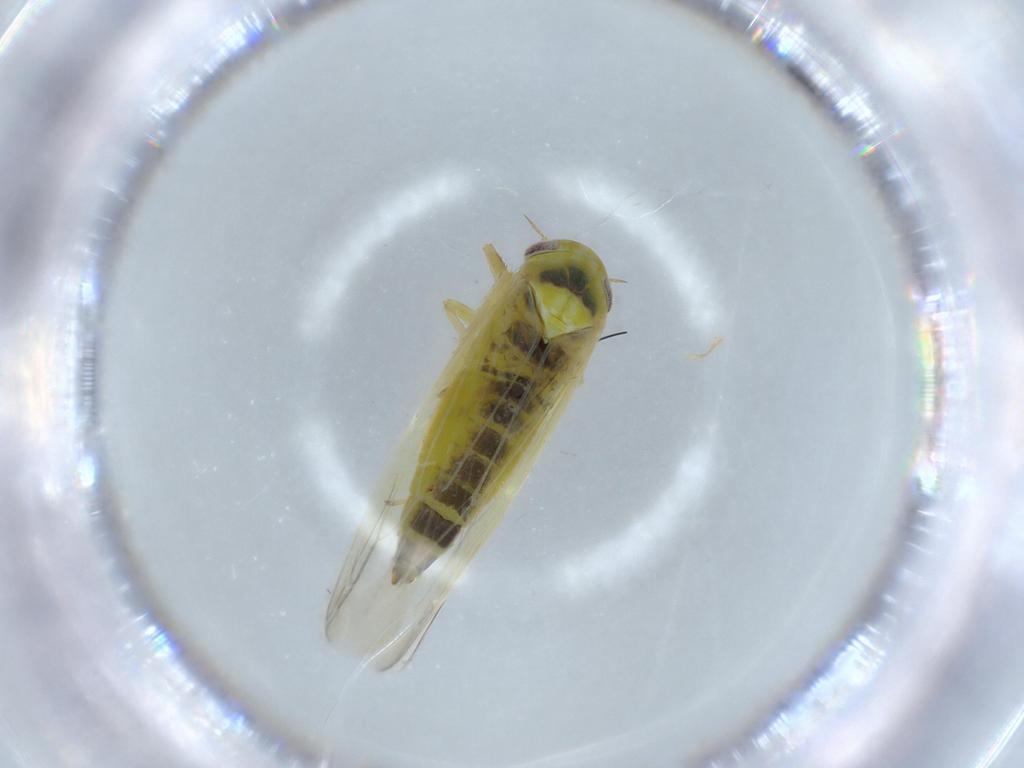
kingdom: Animalia
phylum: Arthropoda
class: Insecta
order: Hemiptera
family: Cicadellidae
